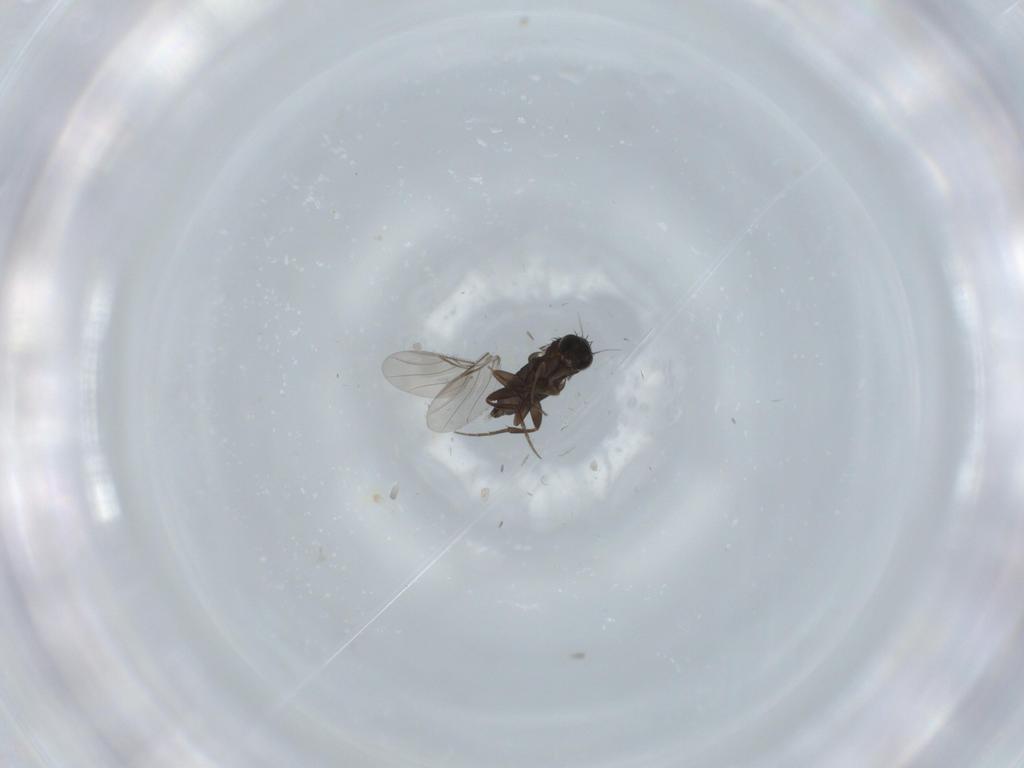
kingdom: Animalia
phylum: Arthropoda
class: Insecta
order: Diptera
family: Phoridae
